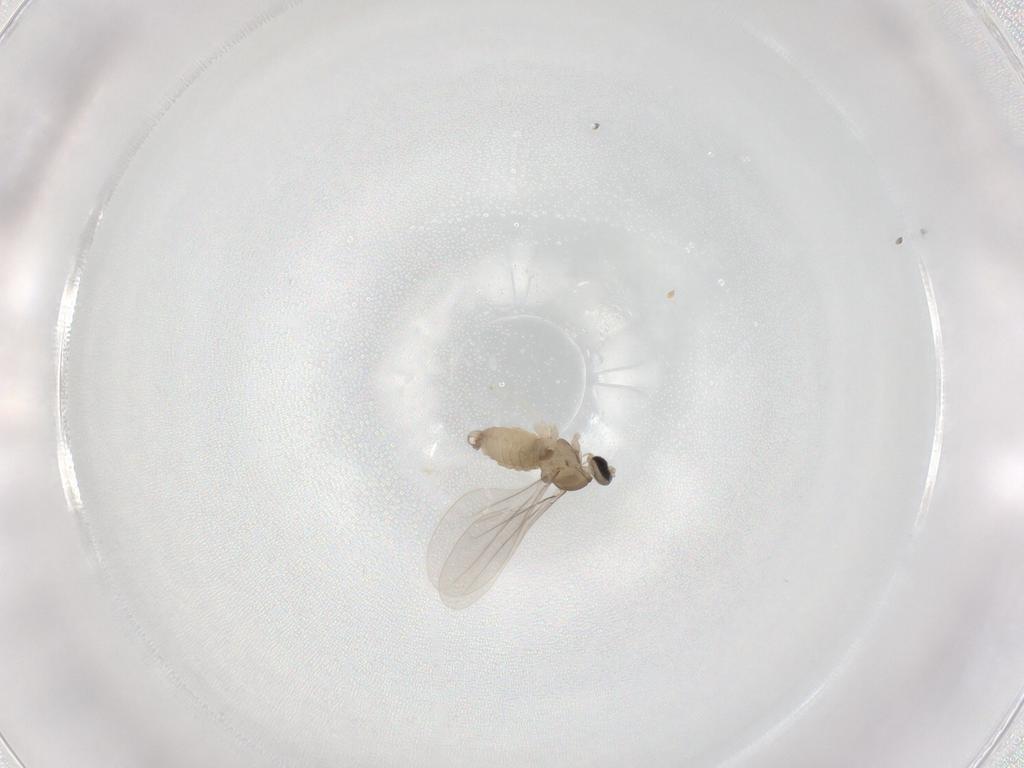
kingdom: Animalia
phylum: Arthropoda
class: Insecta
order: Diptera
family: Cecidomyiidae
